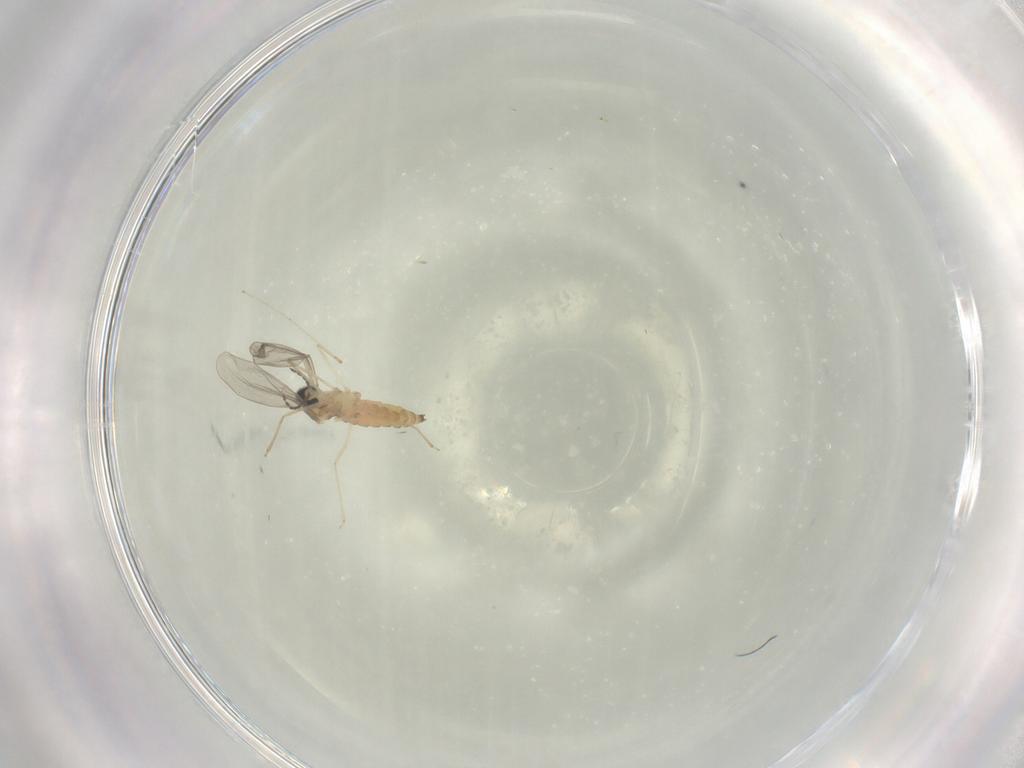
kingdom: Animalia
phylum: Arthropoda
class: Insecta
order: Diptera
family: Cecidomyiidae
